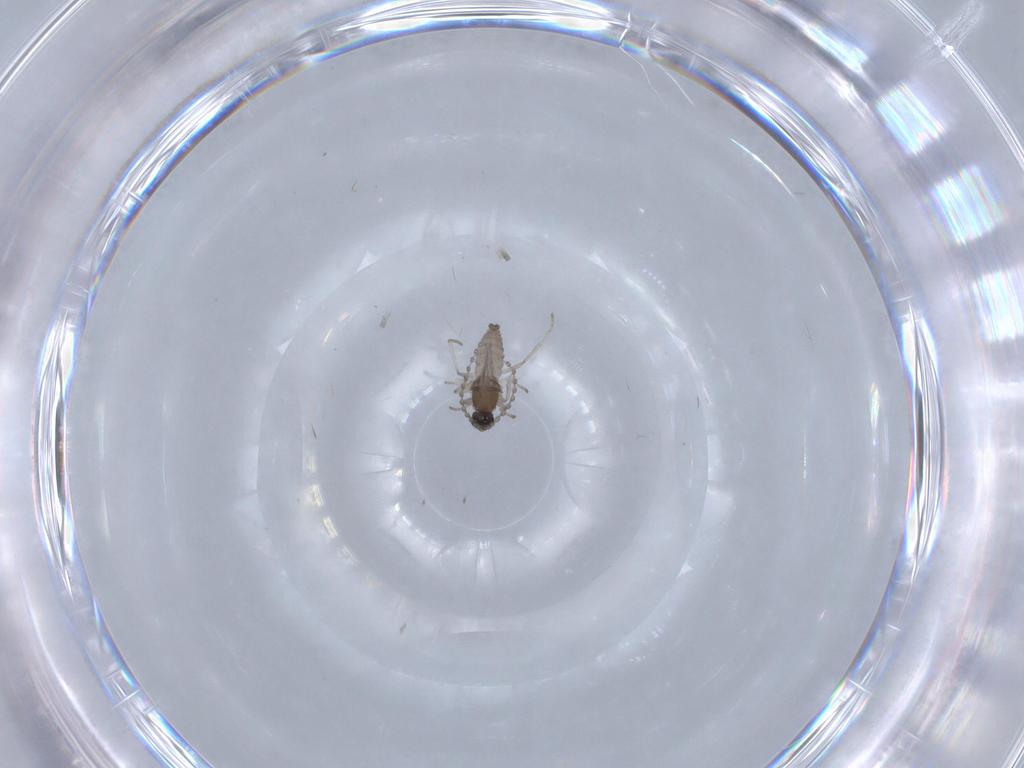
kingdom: Animalia
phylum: Arthropoda
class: Insecta
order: Diptera
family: Cecidomyiidae
